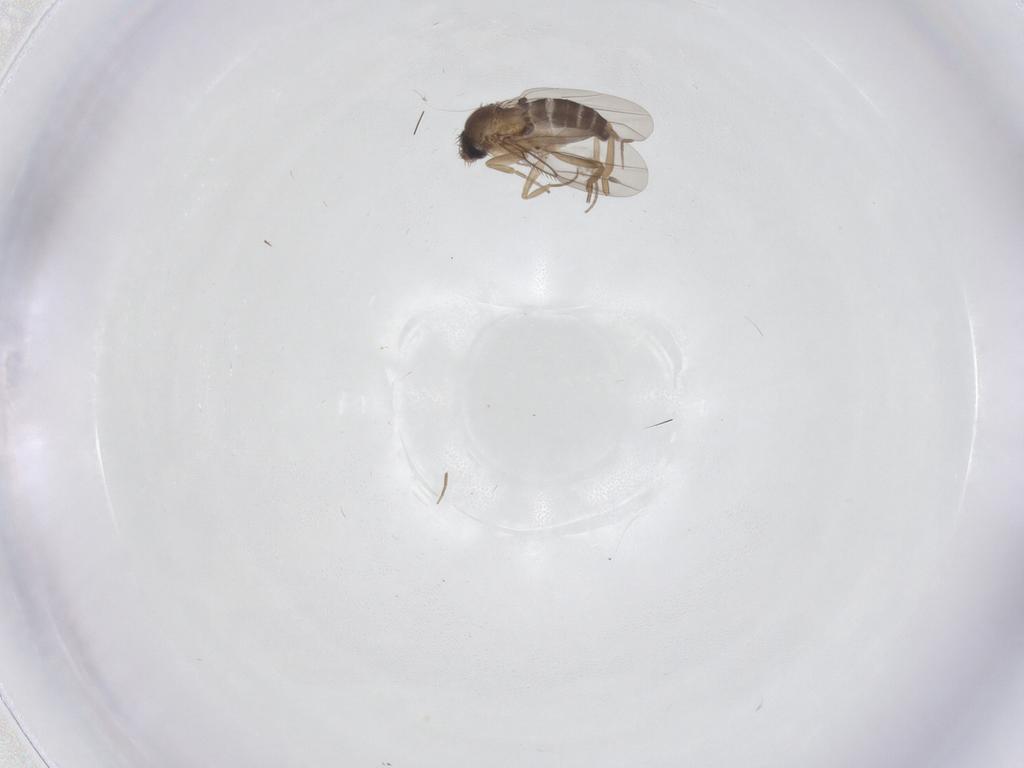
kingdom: Animalia
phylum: Arthropoda
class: Insecta
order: Diptera
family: Phoridae
